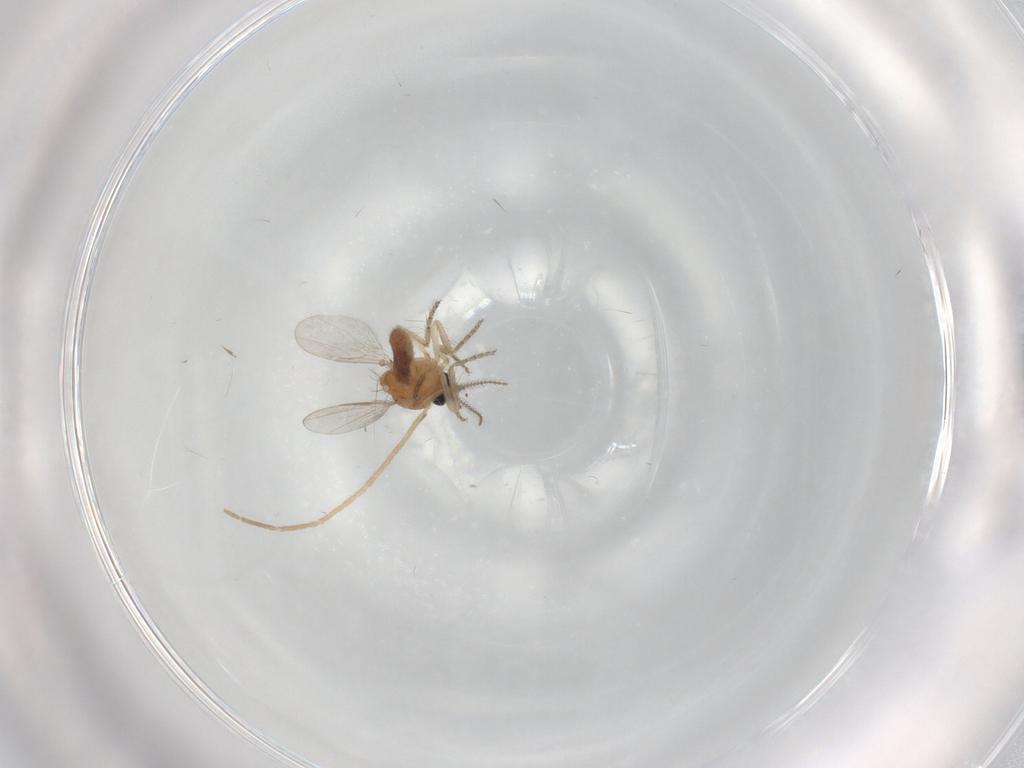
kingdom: Animalia
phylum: Arthropoda
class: Insecta
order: Diptera
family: Ceratopogonidae
